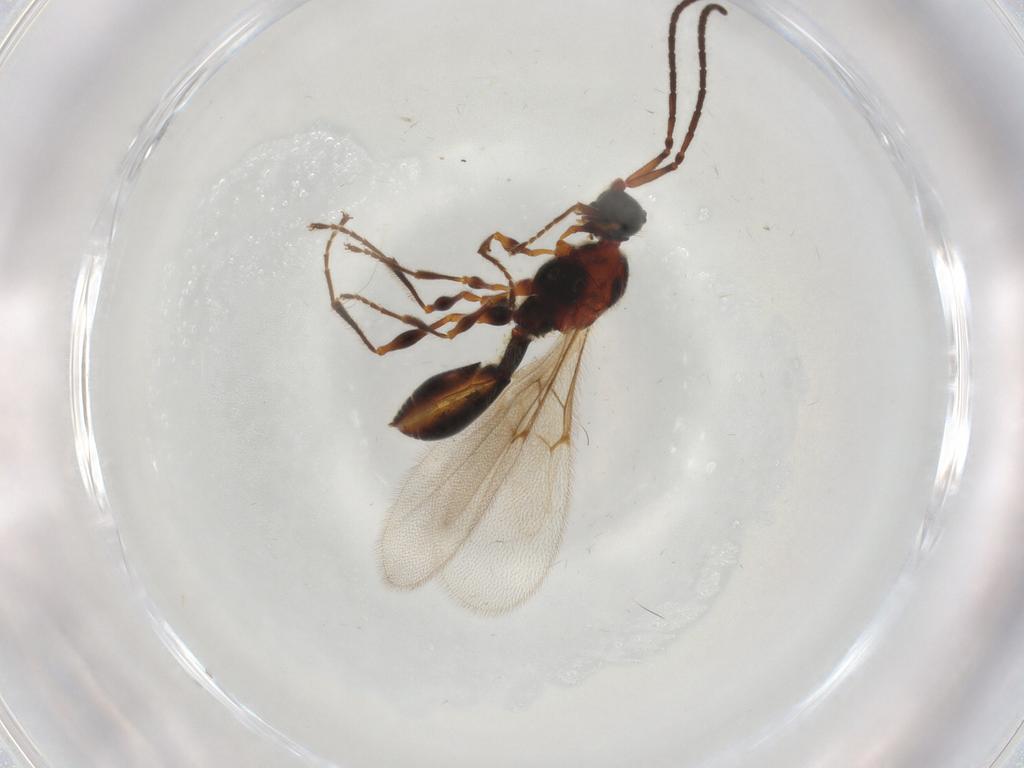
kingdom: Animalia
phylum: Arthropoda
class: Insecta
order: Hymenoptera
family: Diapriidae
